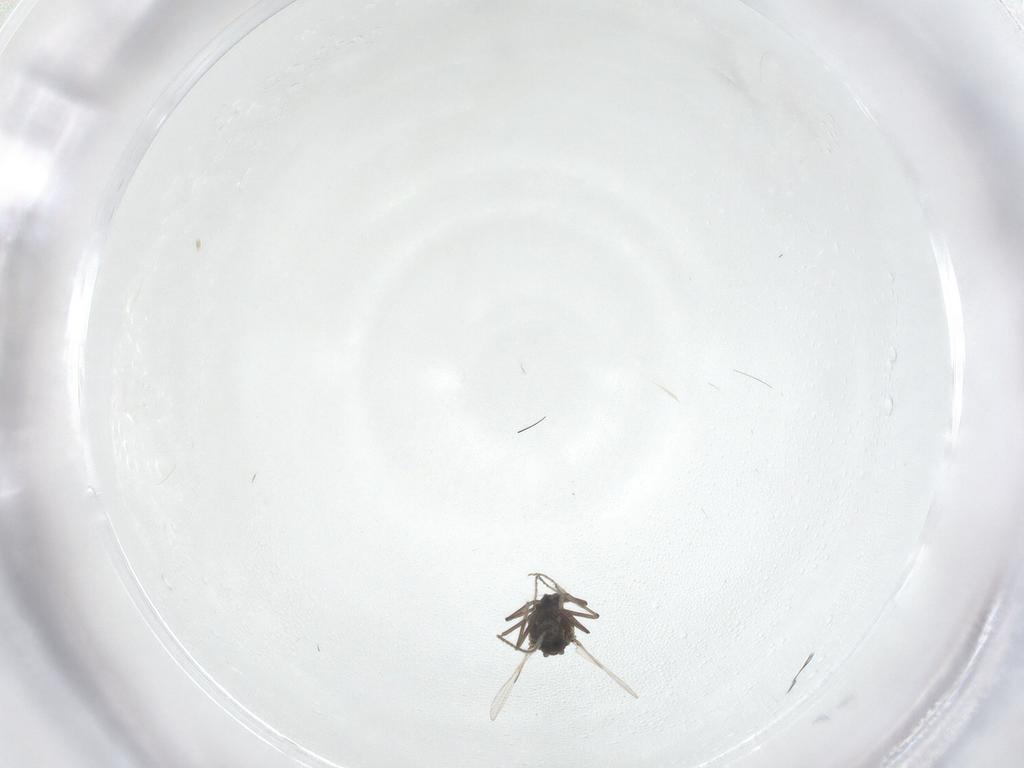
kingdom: Animalia
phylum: Arthropoda
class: Insecta
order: Diptera
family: Ceratopogonidae
